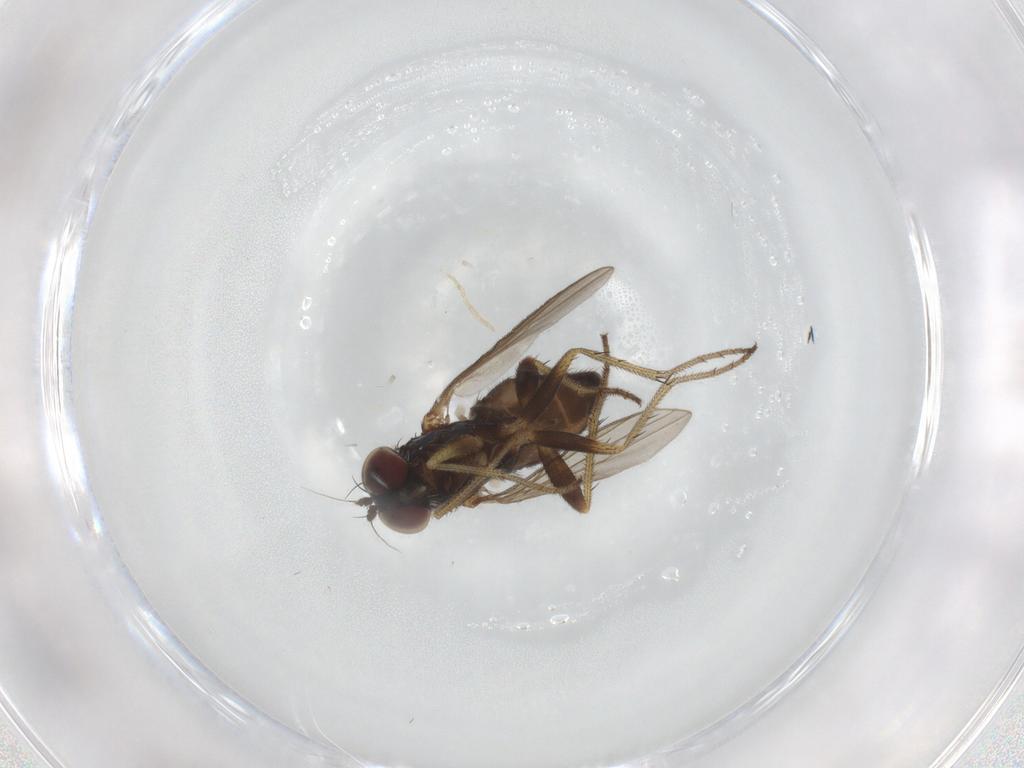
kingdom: Animalia
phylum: Arthropoda
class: Insecta
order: Diptera
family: Dolichopodidae
